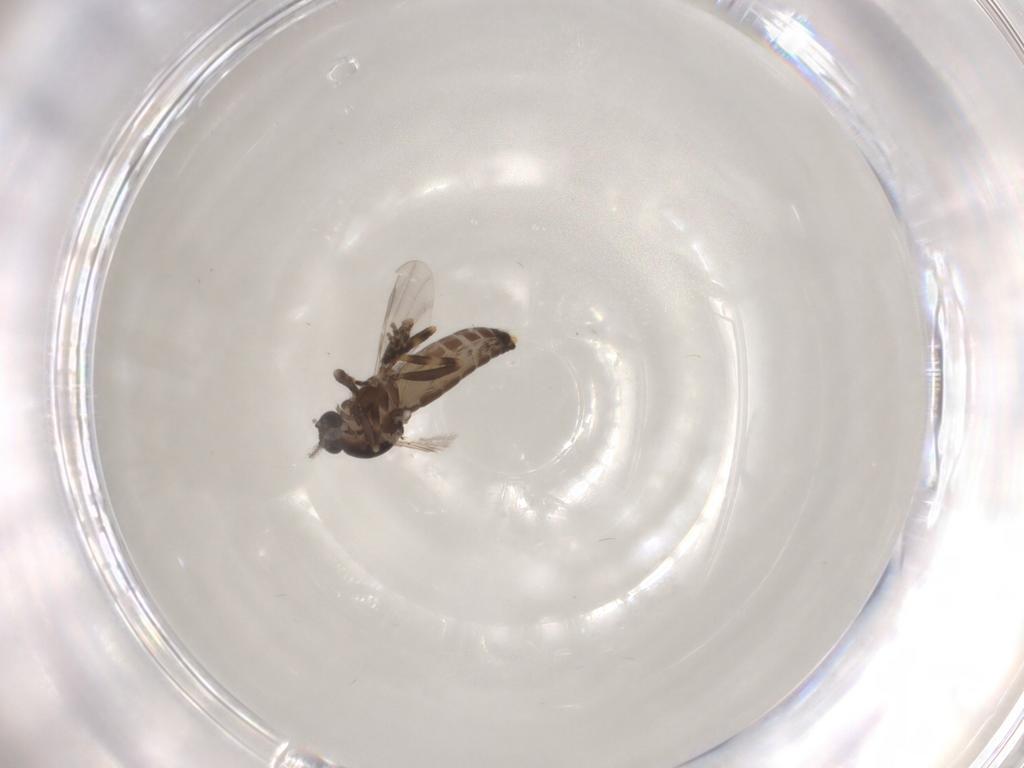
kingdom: Animalia
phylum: Arthropoda
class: Insecta
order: Diptera
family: Ceratopogonidae
